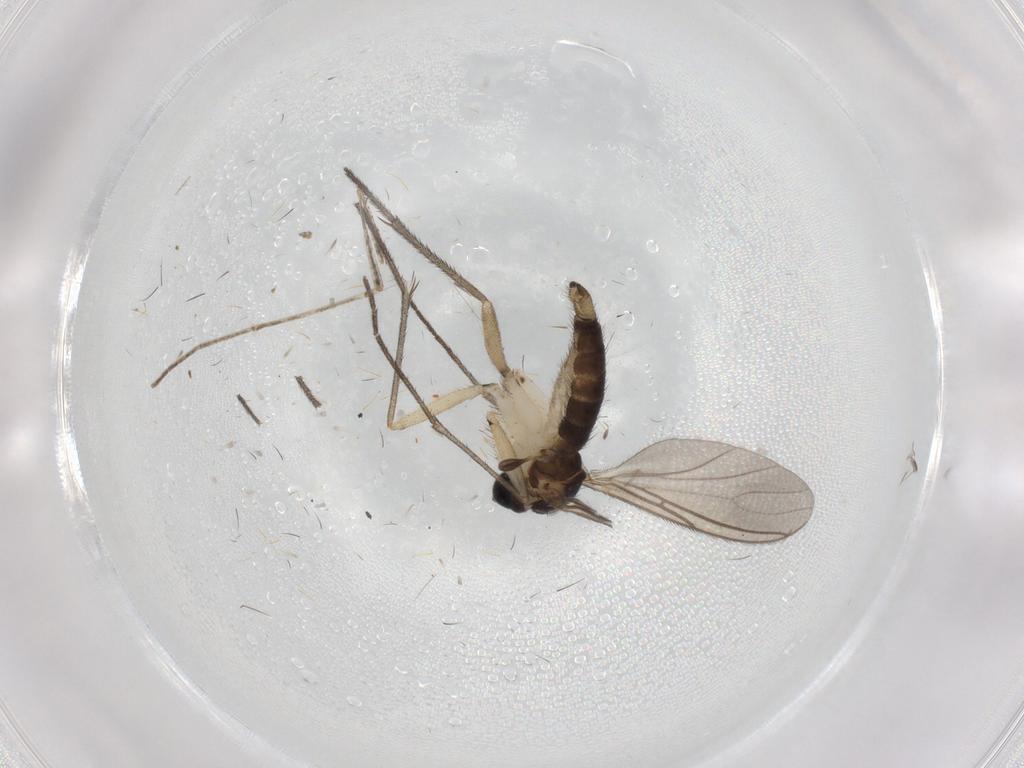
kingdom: Animalia
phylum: Arthropoda
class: Insecta
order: Diptera
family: Sciaridae
